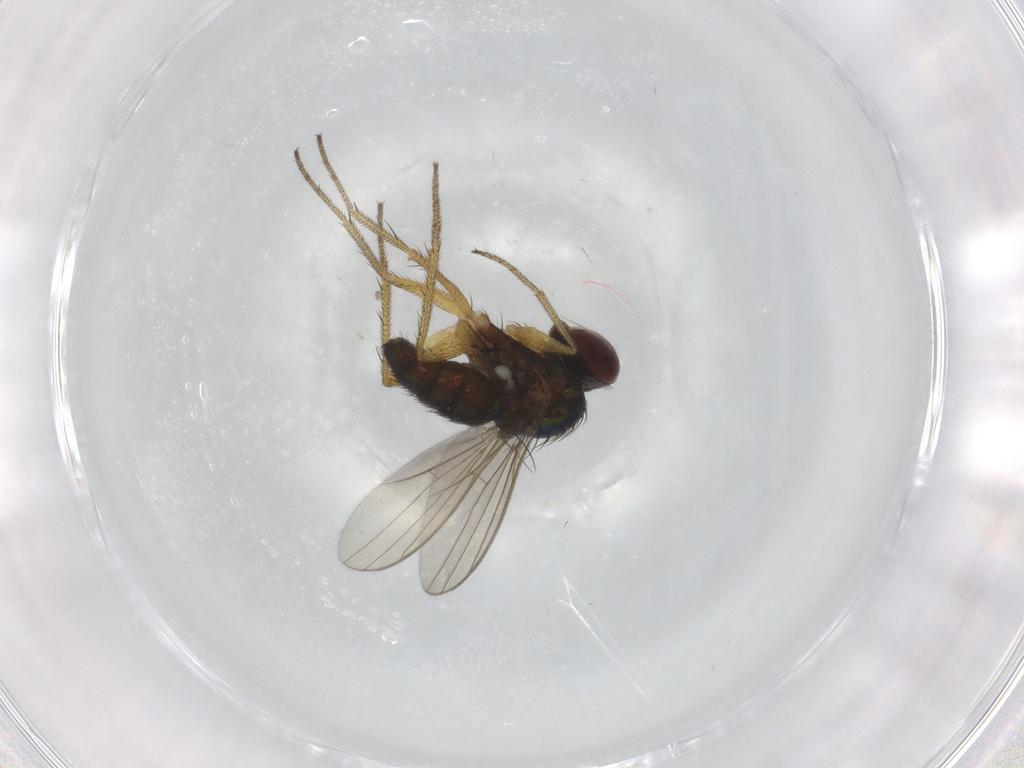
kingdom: Animalia
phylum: Arthropoda
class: Insecta
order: Diptera
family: Dolichopodidae
